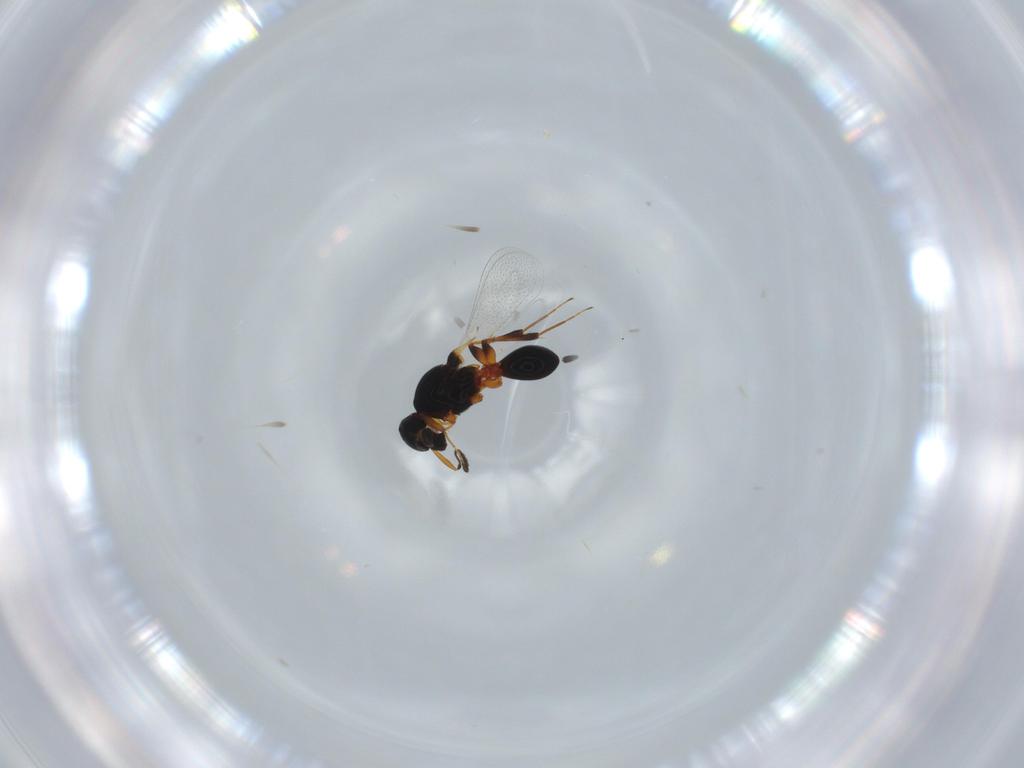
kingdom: Animalia
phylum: Arthropoda
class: Insecta
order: Hymenoptera
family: Platygastridae
